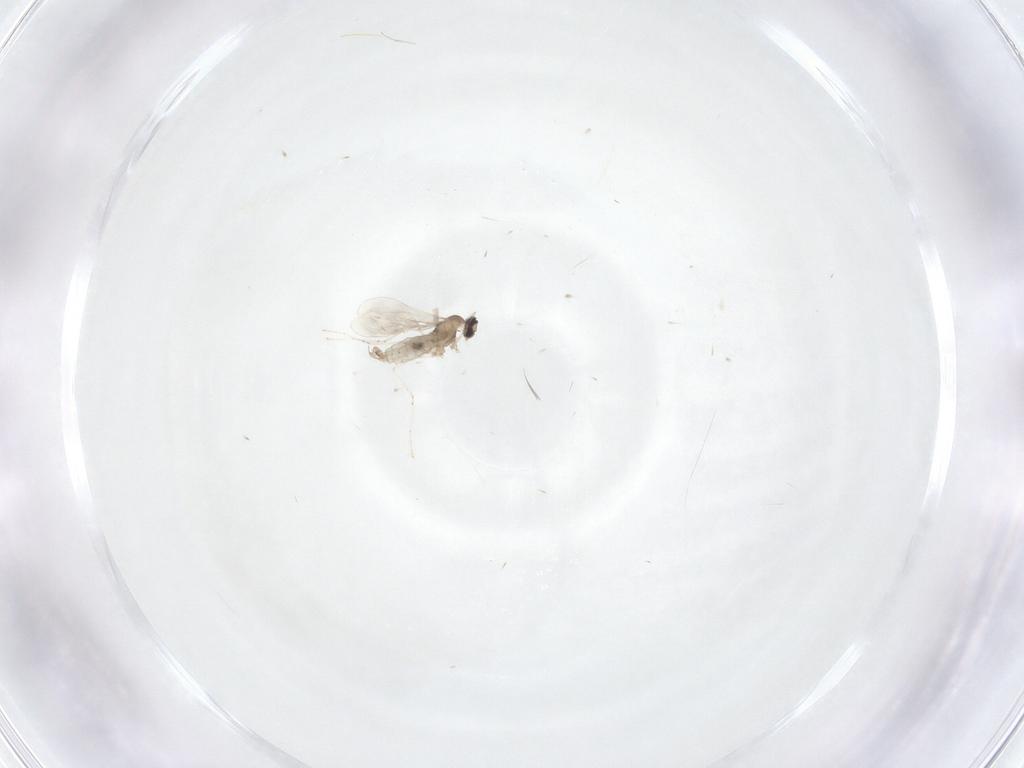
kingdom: Animalia
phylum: Arthropoda
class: Insecta
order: Diptera
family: Cecidomyiidae
